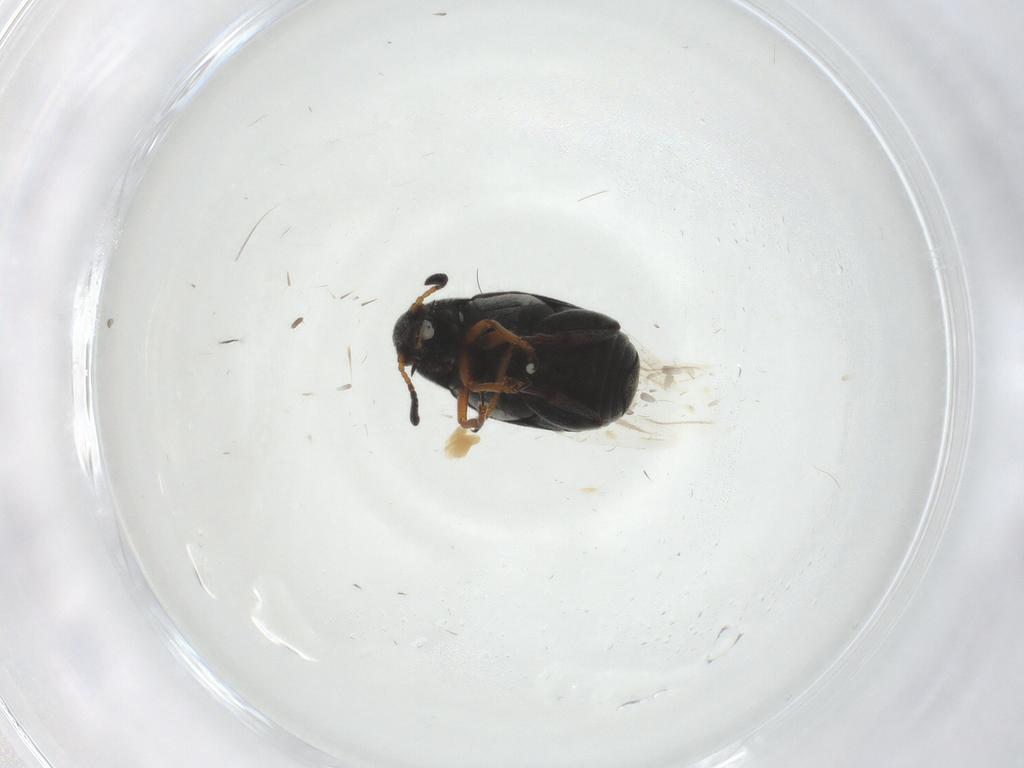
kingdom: Animalia
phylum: Arthropoda
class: Insecta
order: Coleoptera
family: Chrysomelidae
